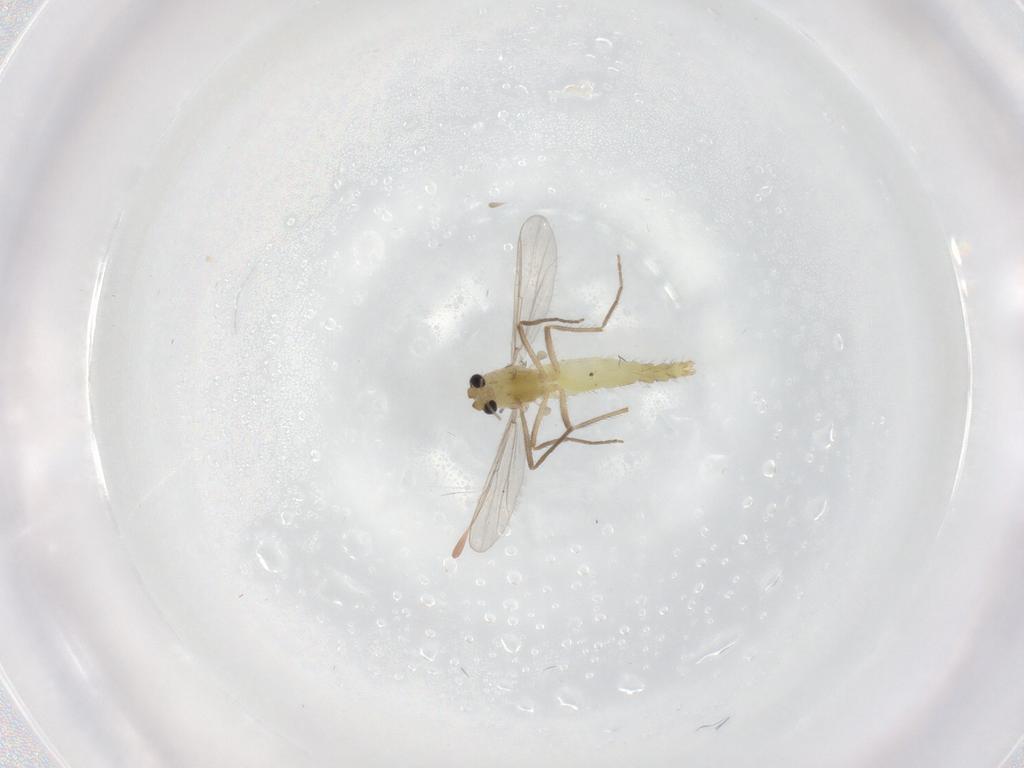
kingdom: Animalia
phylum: Arthropoda
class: Insecta
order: Diptera
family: Chironomidae
